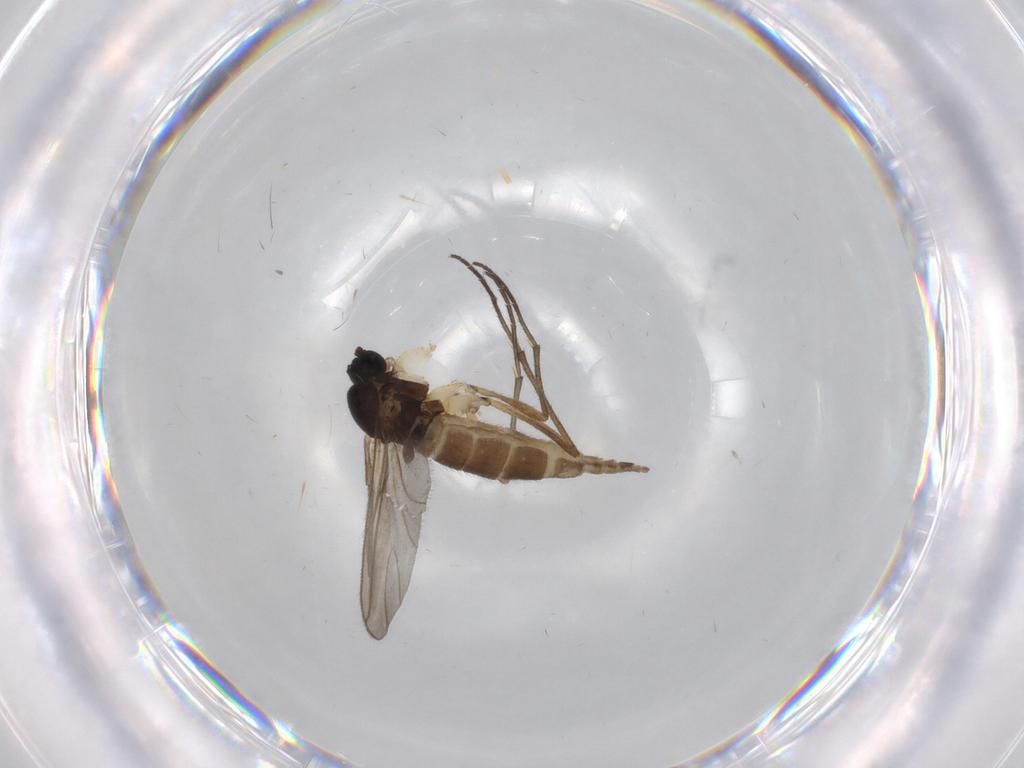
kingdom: Animalia
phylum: Arthropoda
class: Insecta
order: Diptera
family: Sciaridae
